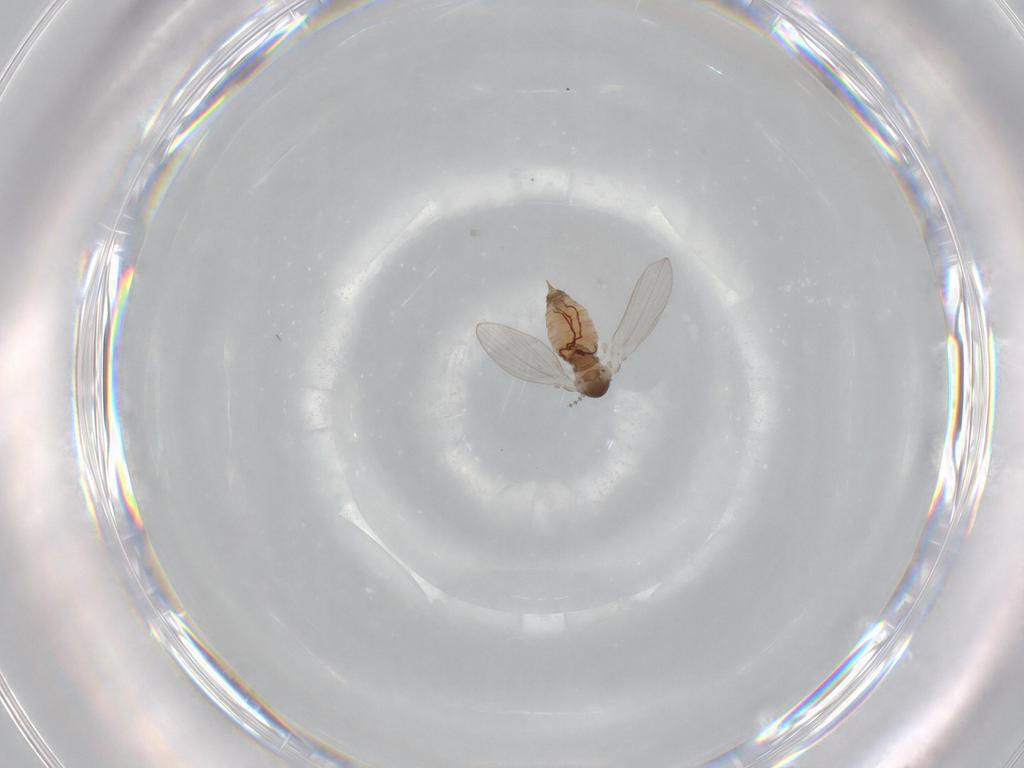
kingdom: Animalia
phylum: Arthropoda
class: Insecta
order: Diptera
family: Psychodidae
